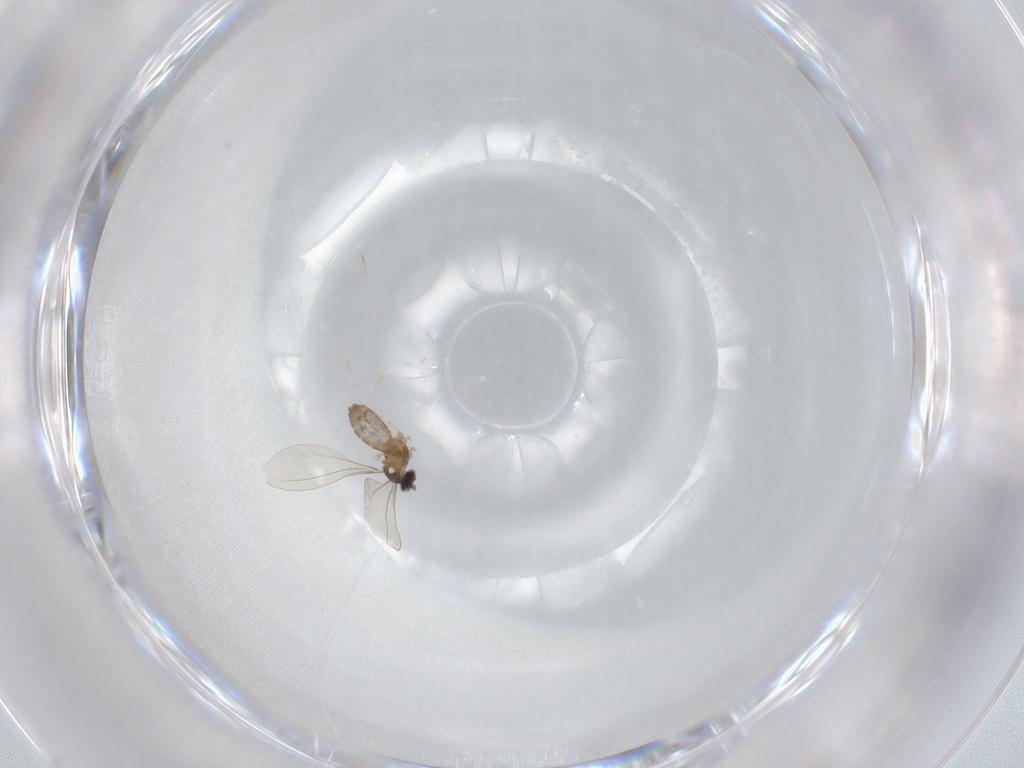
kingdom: Animalia
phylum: Arthropoda
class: Insecta
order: Diptera
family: Cecidomyiidae
